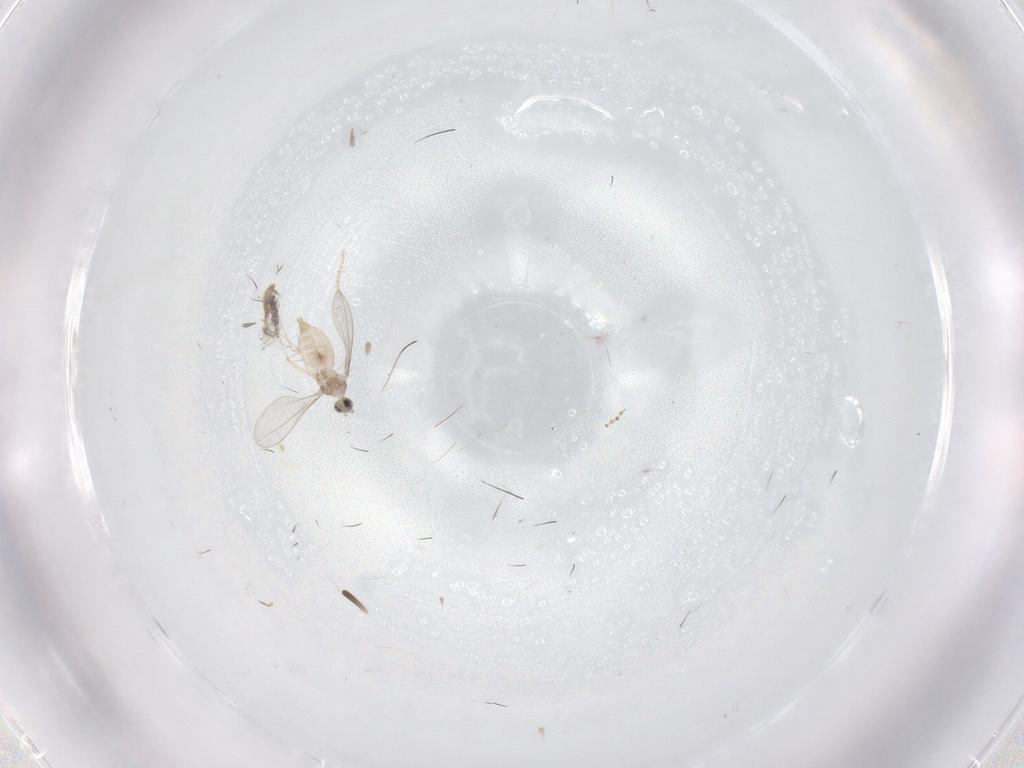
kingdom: Animalia
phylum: Arthropoda
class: Insecta
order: Diptera
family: Cecidomyiidae
